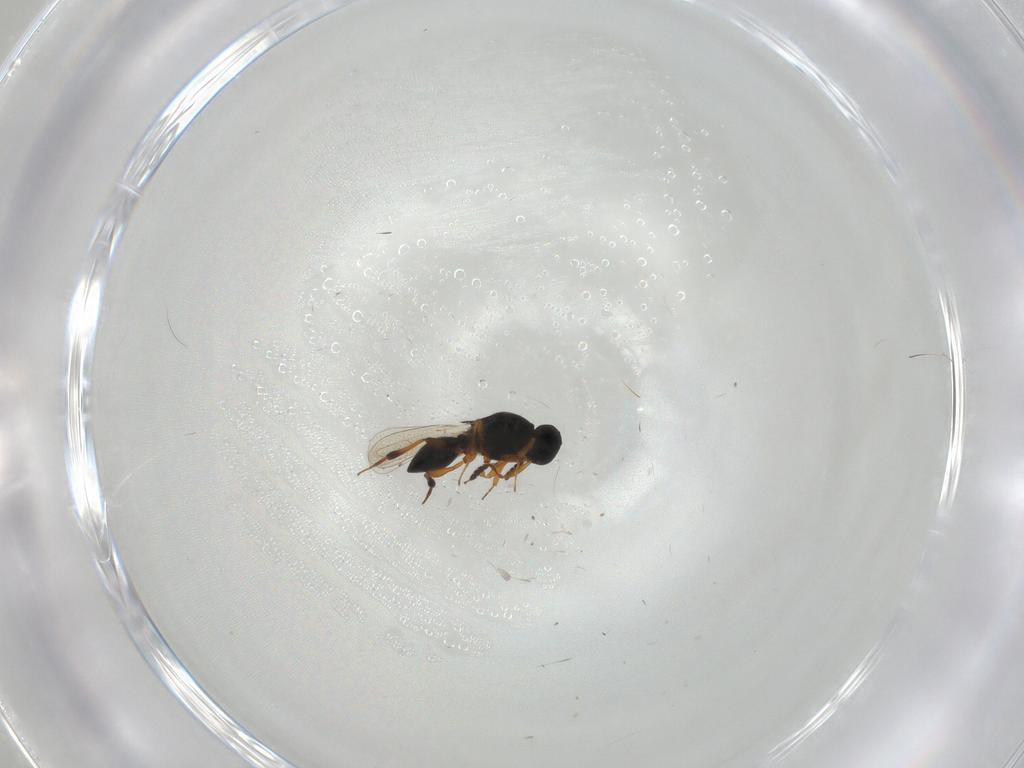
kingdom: Animalia
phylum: Arthropoda
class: Insecta
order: Hymenoptera
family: Platygastridae
